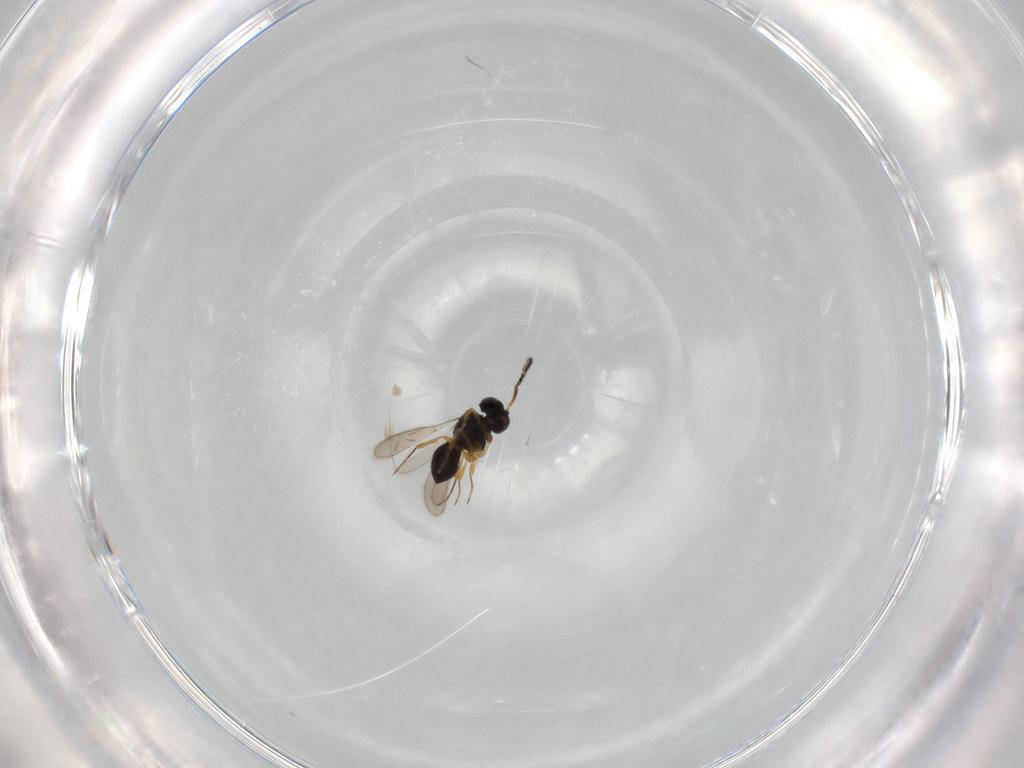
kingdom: Animalia
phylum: Arthropoda
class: Insecta
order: Hymenoptera
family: Scelionidae
